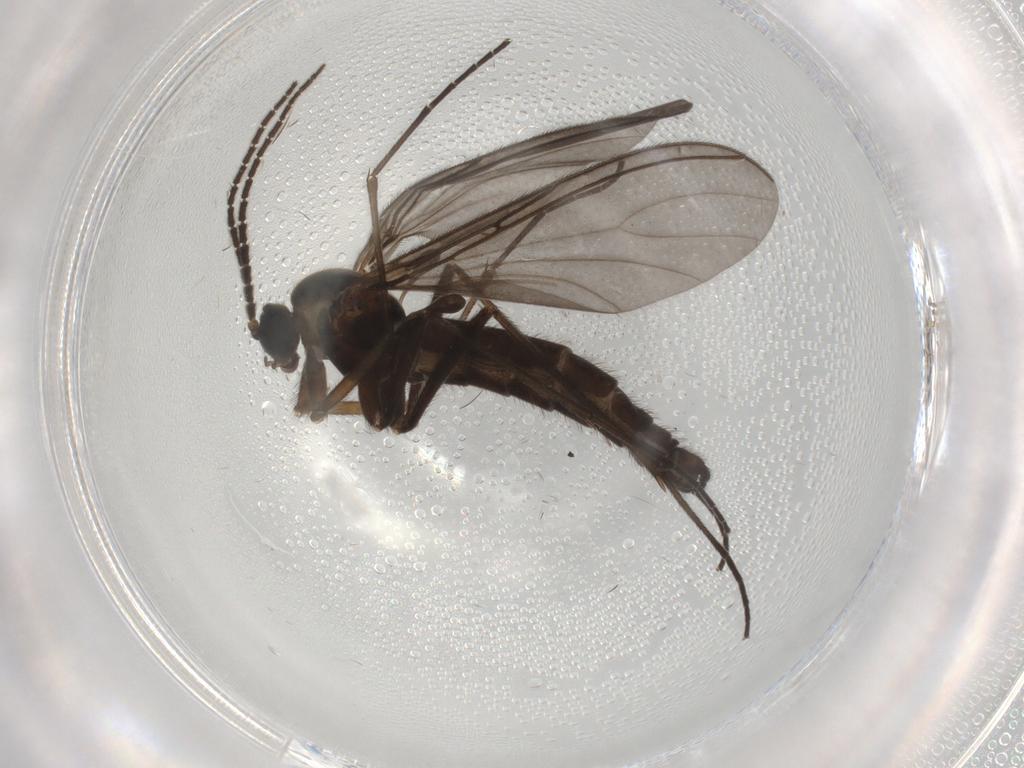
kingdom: Animalia
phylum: Arthropoda
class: Insecta
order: Diptera
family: Sciaridae
